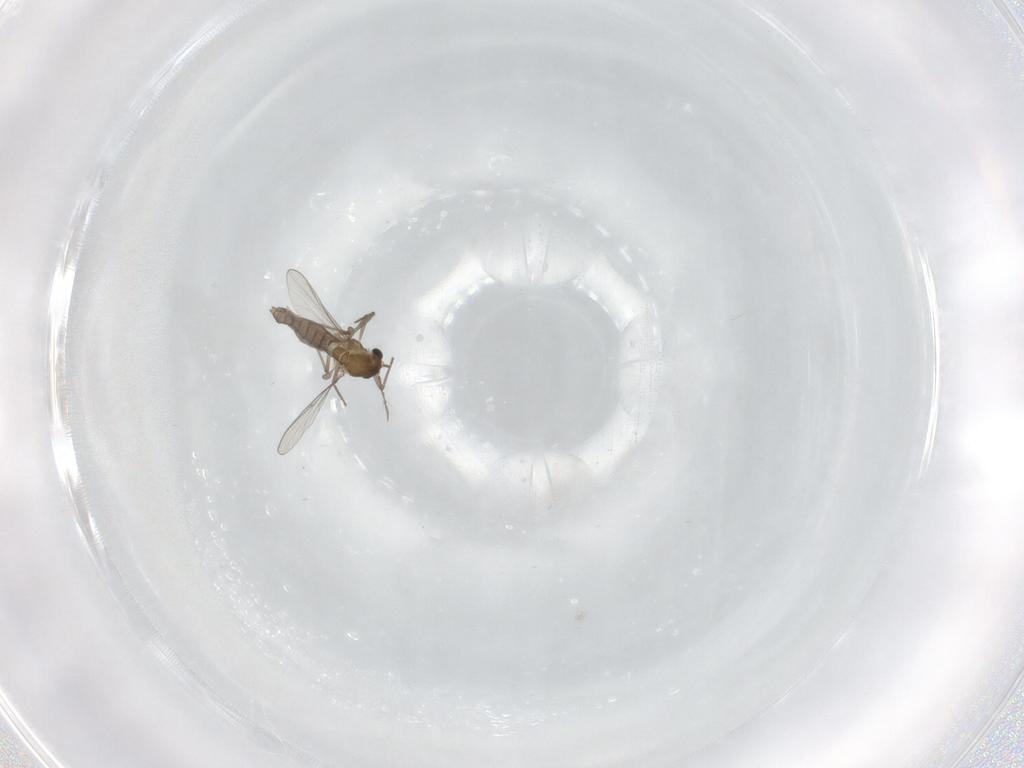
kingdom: Animalia
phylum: Arthropoda
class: Insecta
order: Diptera
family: Chironomidae
